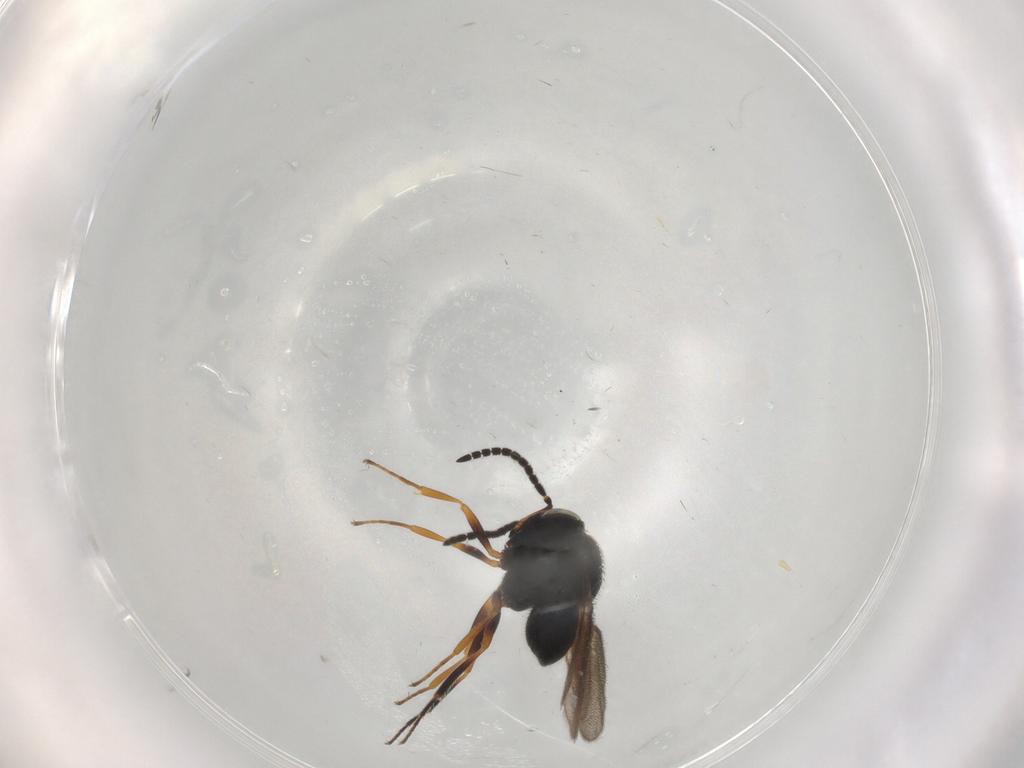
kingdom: Animalia
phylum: Arthropoda
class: Insecta
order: Hymenoptera
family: Scelionidae
